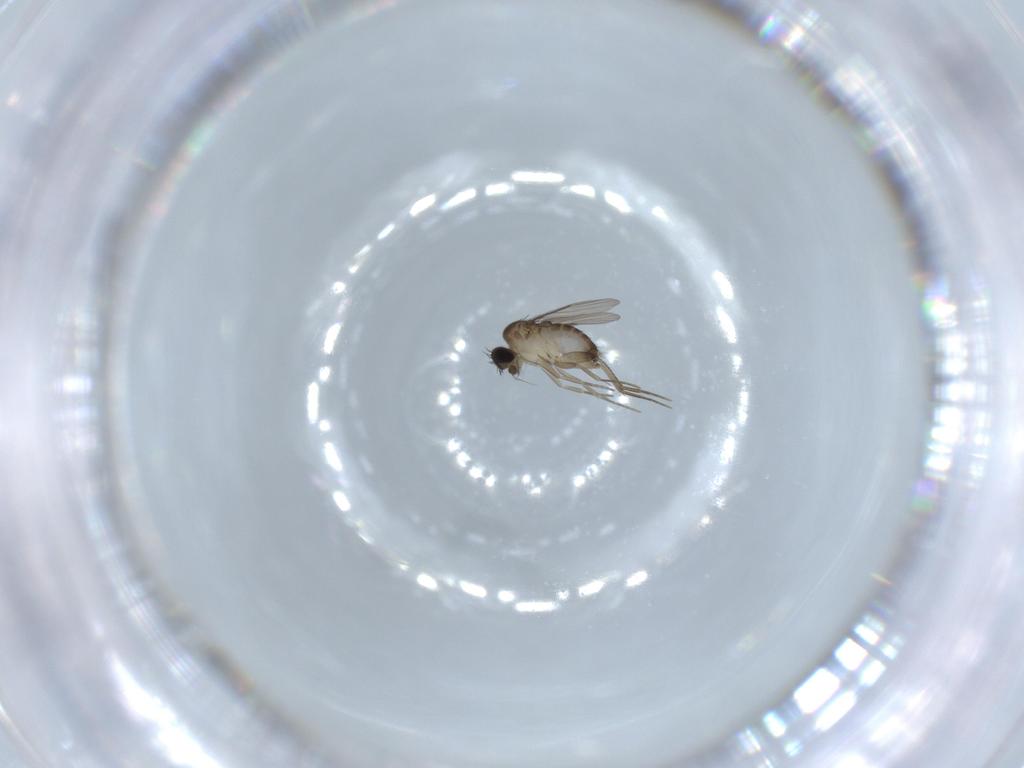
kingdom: Animalia
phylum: Arthropoda
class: Insecta
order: Diptera
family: Phoridae
